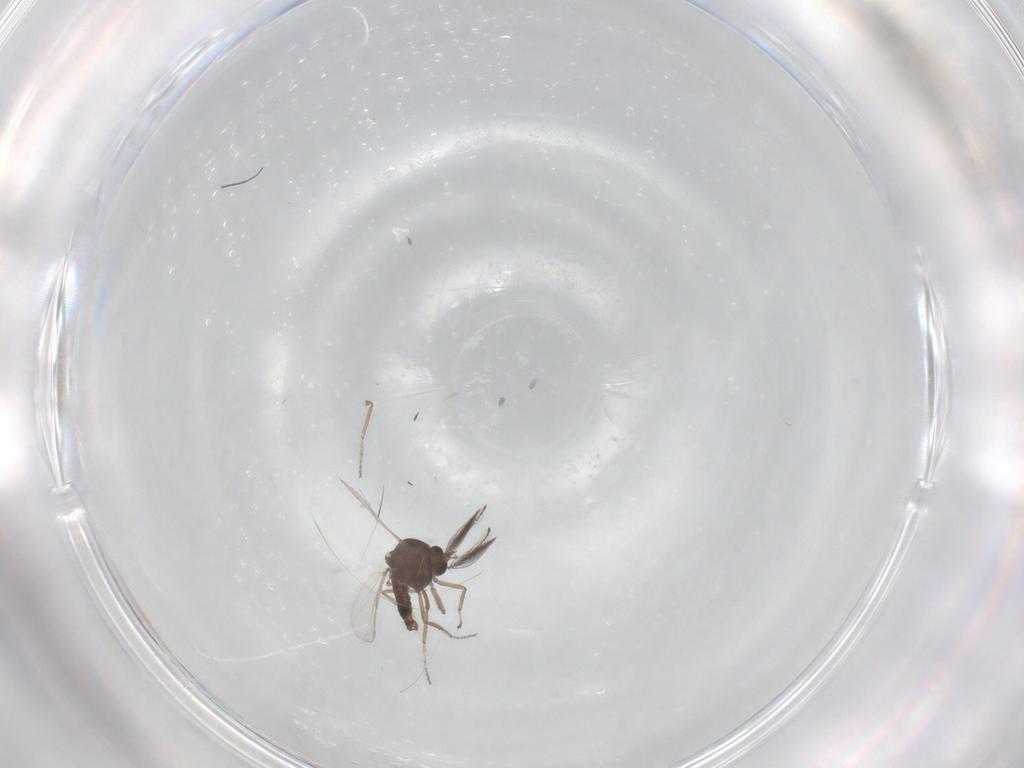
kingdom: Animalia
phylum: Arthropoda
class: Insecta
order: Diptera
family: Ceratopogonidae
